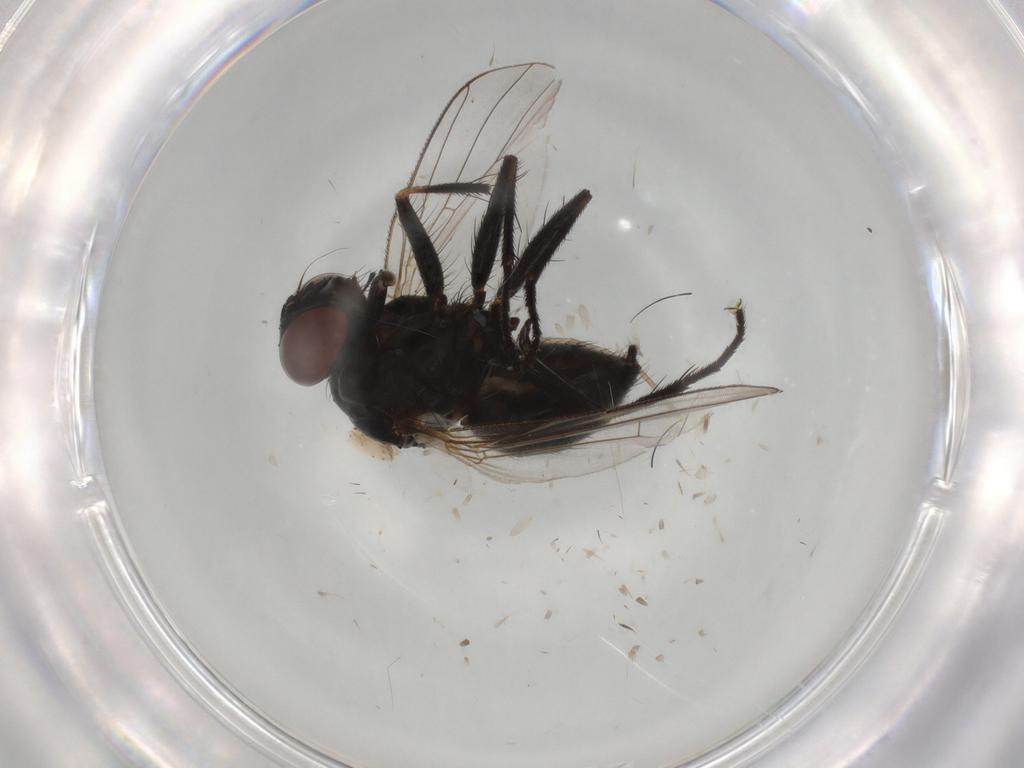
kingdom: Animalia
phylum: Arthropoda
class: Insecta
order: Diptera
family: Muscidae
